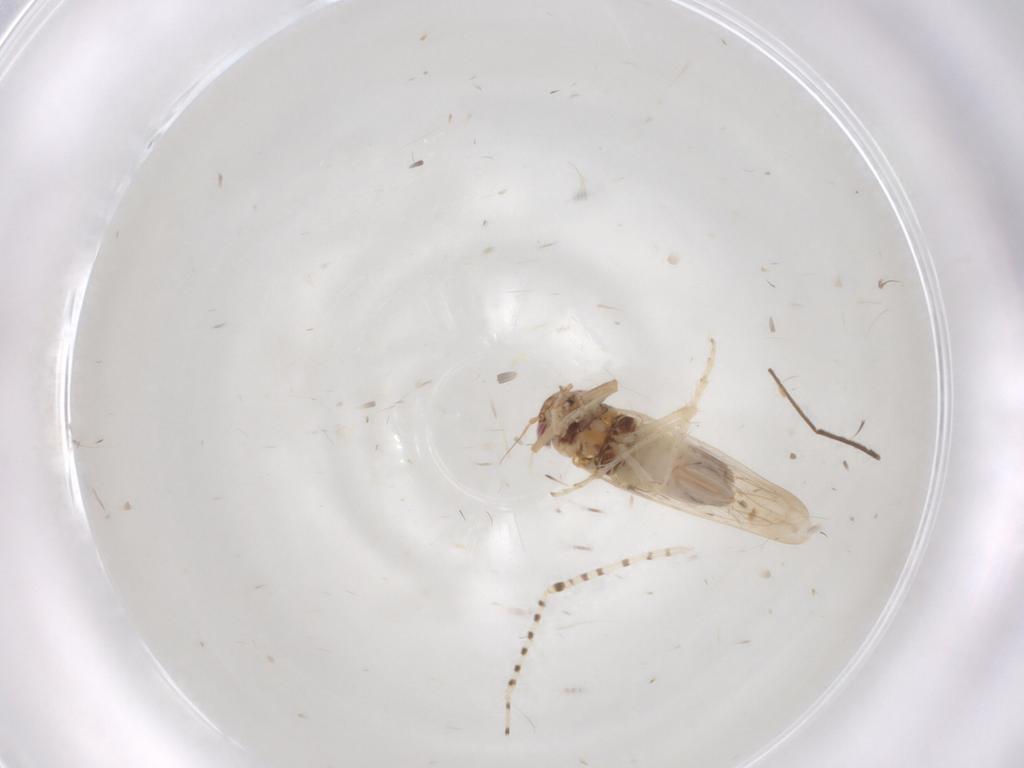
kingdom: Animalia
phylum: Arthropoda
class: Insecta
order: Hemiptera
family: Cicadellidae
